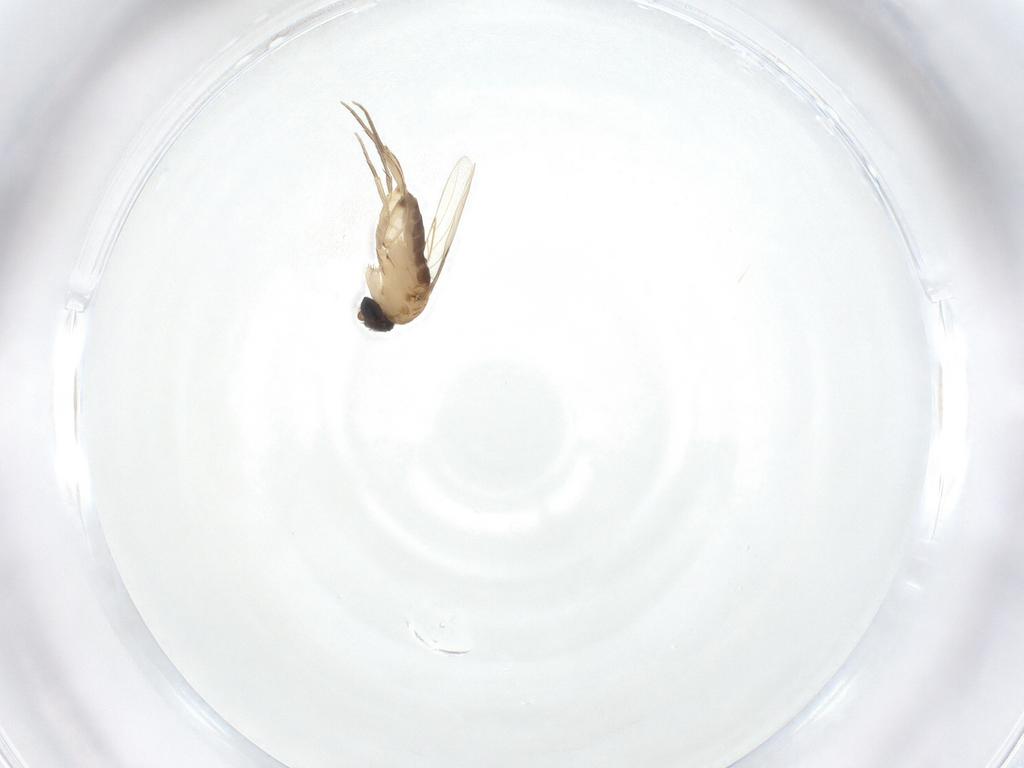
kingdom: Animalia
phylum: Arthropoda
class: Insecta
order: Diptera
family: Phoridae
